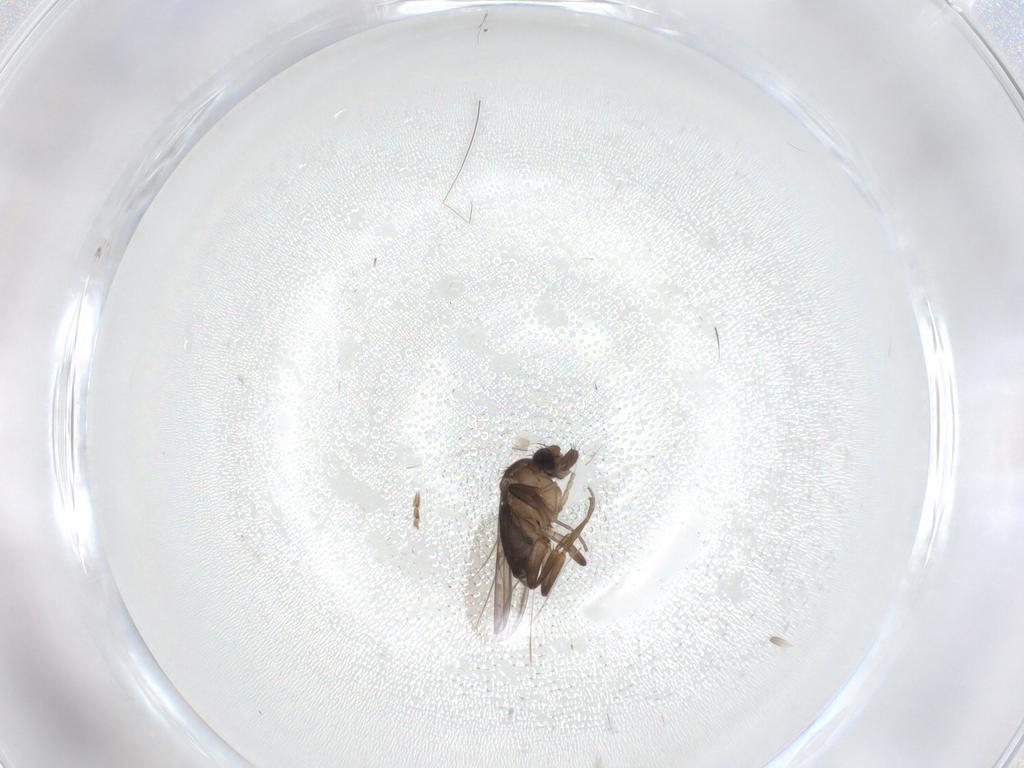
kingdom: Animalia
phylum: Arthropoda
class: Insecta
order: Diptera
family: Phoridae
